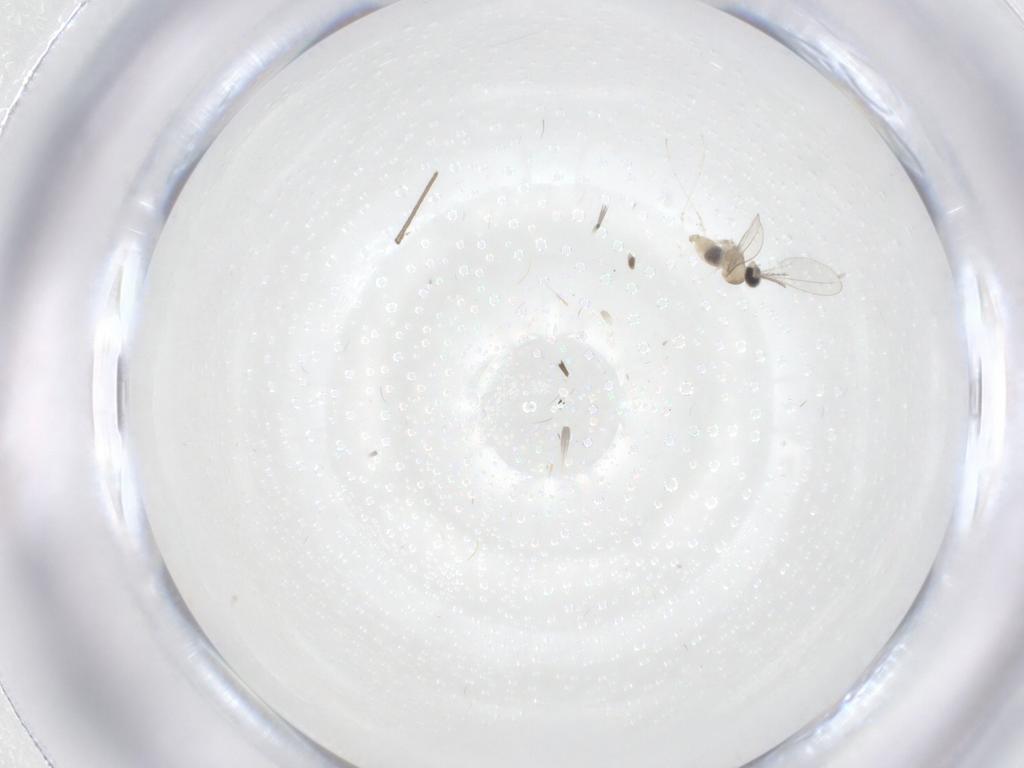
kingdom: Animalia
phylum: Arthropoda
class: Insecta
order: Diptera
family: Cecidomyiidae
